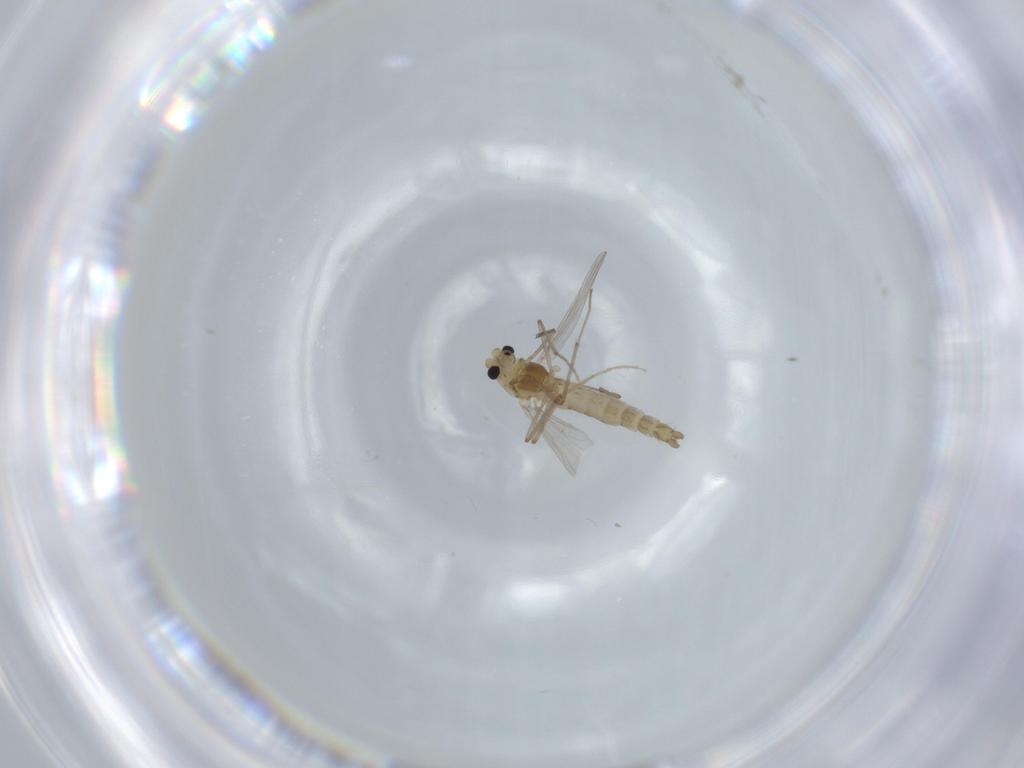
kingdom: Animalia
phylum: Arthropoda
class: Insecta
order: Diptera
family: Chironomidae
